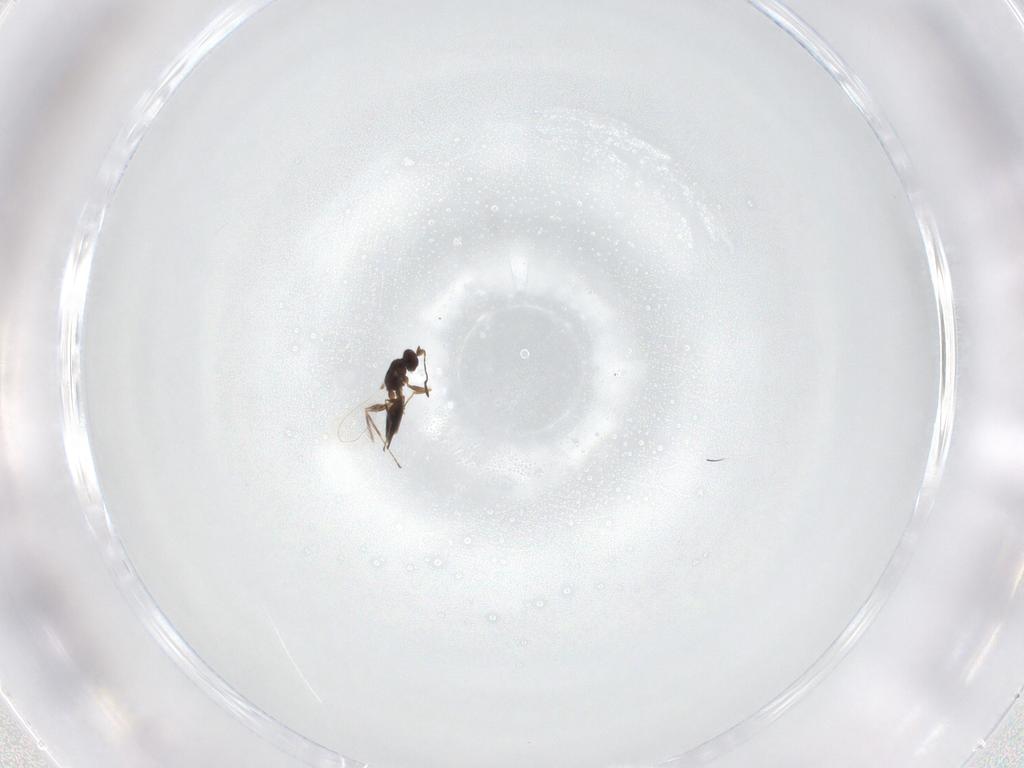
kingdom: Animalia
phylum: Arthropoda
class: Insecta
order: Hymenoptera
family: Mymaridae
